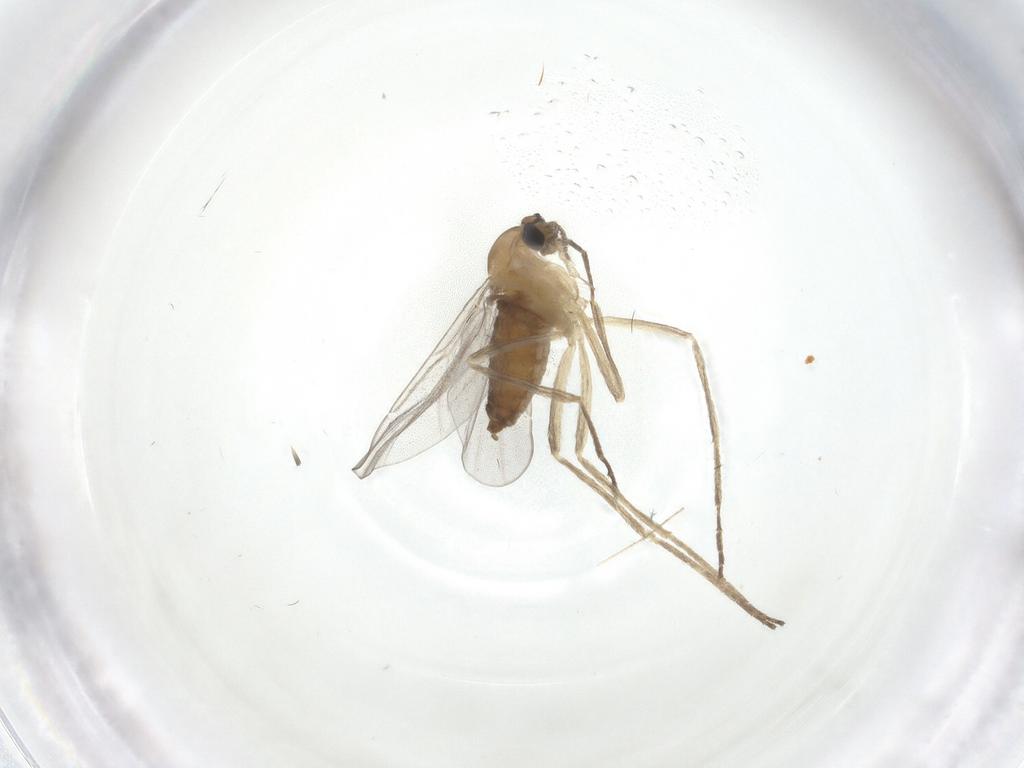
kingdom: Animalia
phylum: Arthropoda
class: Insecta
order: Diptera
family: Cecidomyiidae
